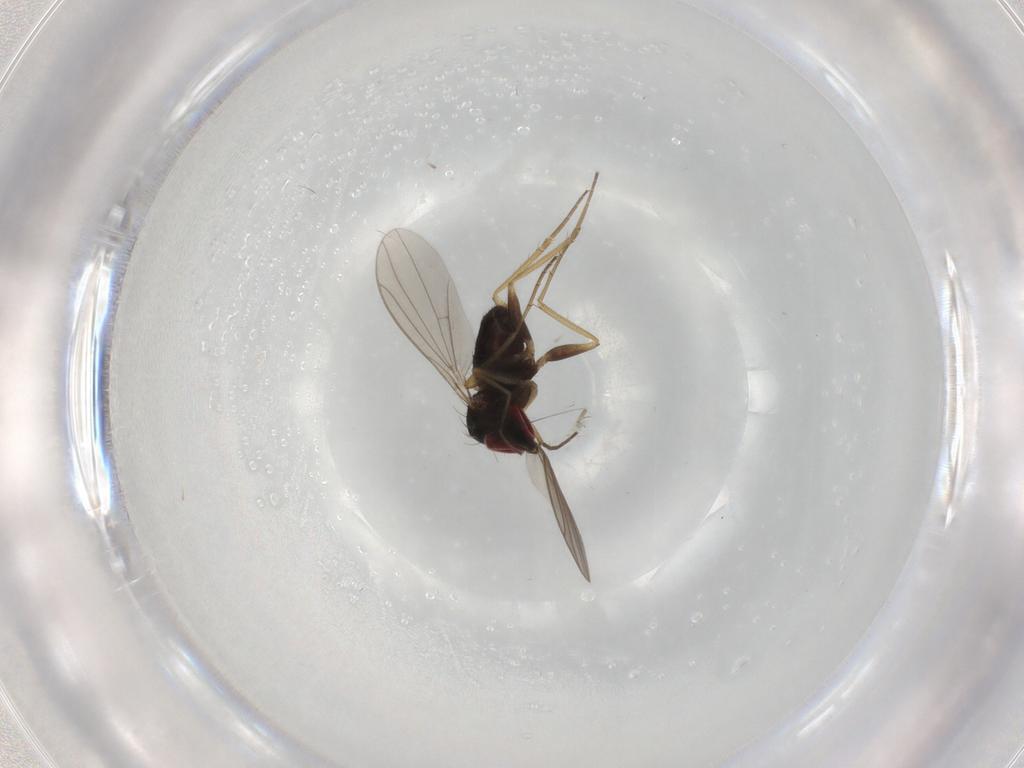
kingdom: Animalia
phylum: Arthropoda
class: Insecta
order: Diptera
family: Dolichopodidae
